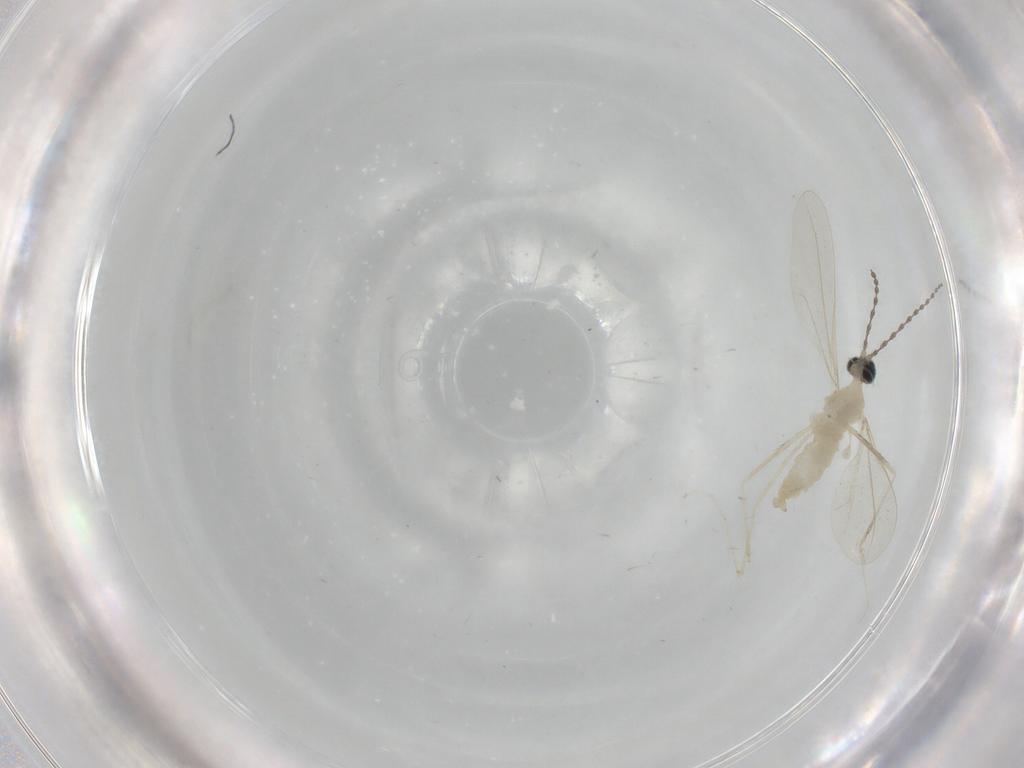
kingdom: Animalia
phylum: Arthropoda
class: Insecta
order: Diptera
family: Cecidomyiidae
